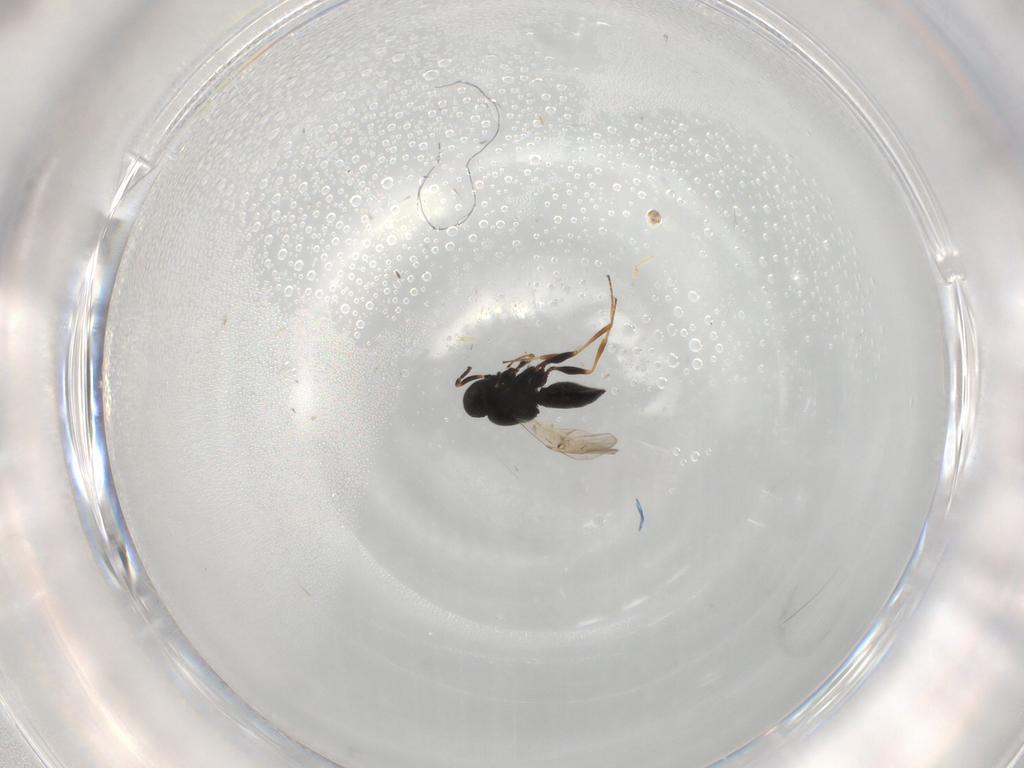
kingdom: Animalia
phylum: Arthropoda
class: Insecta
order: Hymenoptera
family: Scelionidae
